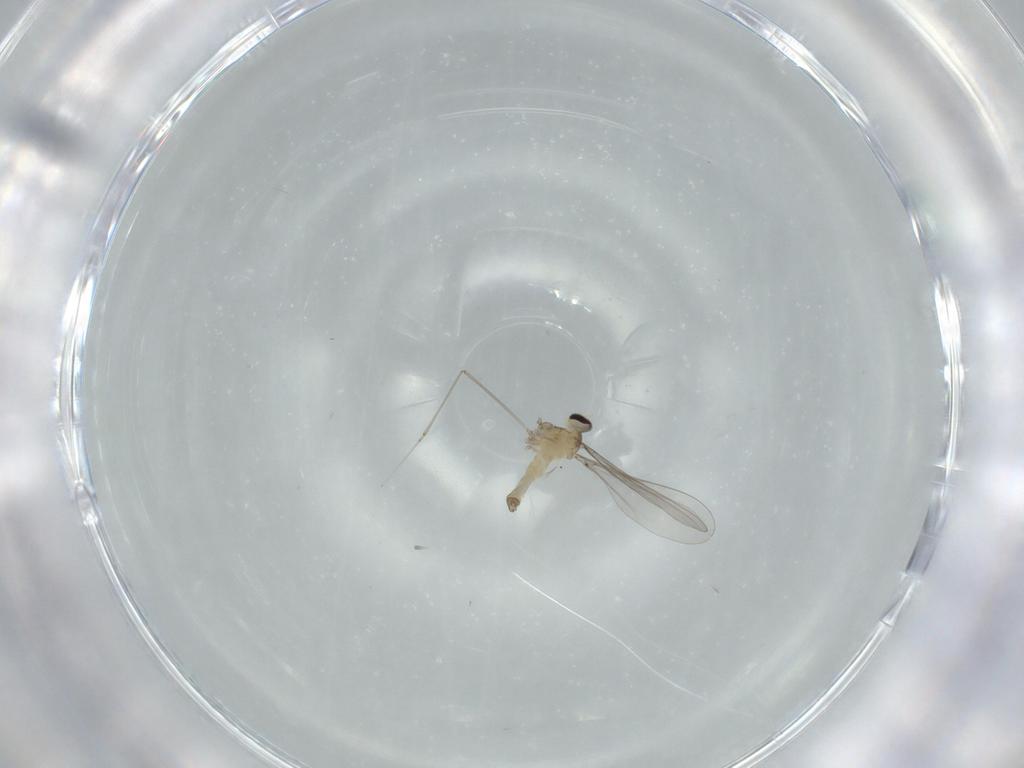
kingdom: Animalia
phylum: Arthropoda
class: Insecta
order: Diptera
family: Cecidomyiidae
